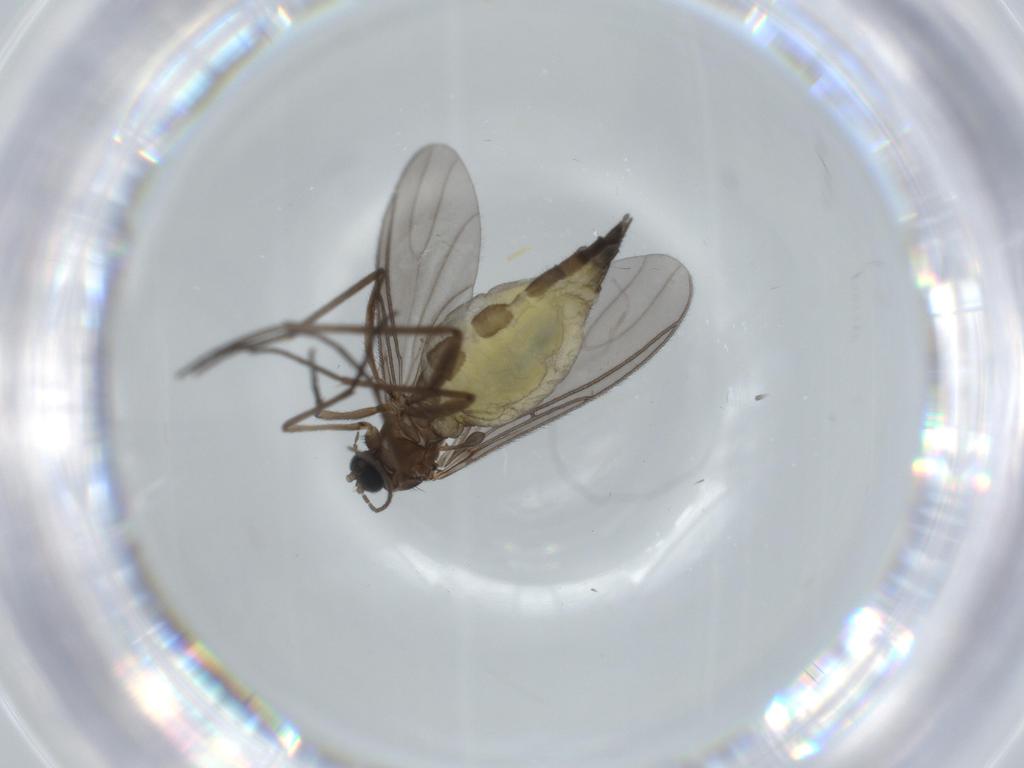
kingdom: Animalia
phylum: Arthropoda
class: Insecta
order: Diptera
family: Sciaridae
